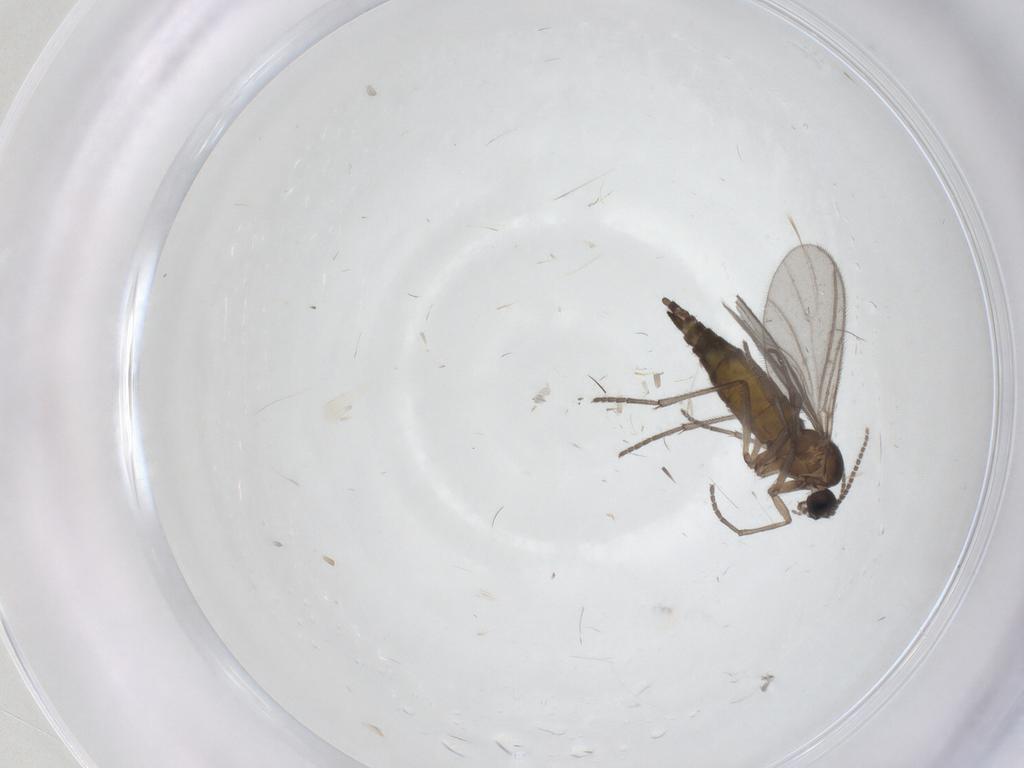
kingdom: Animalia
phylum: Arthropoda
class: Insecta
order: Diptera
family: Sciaridae
